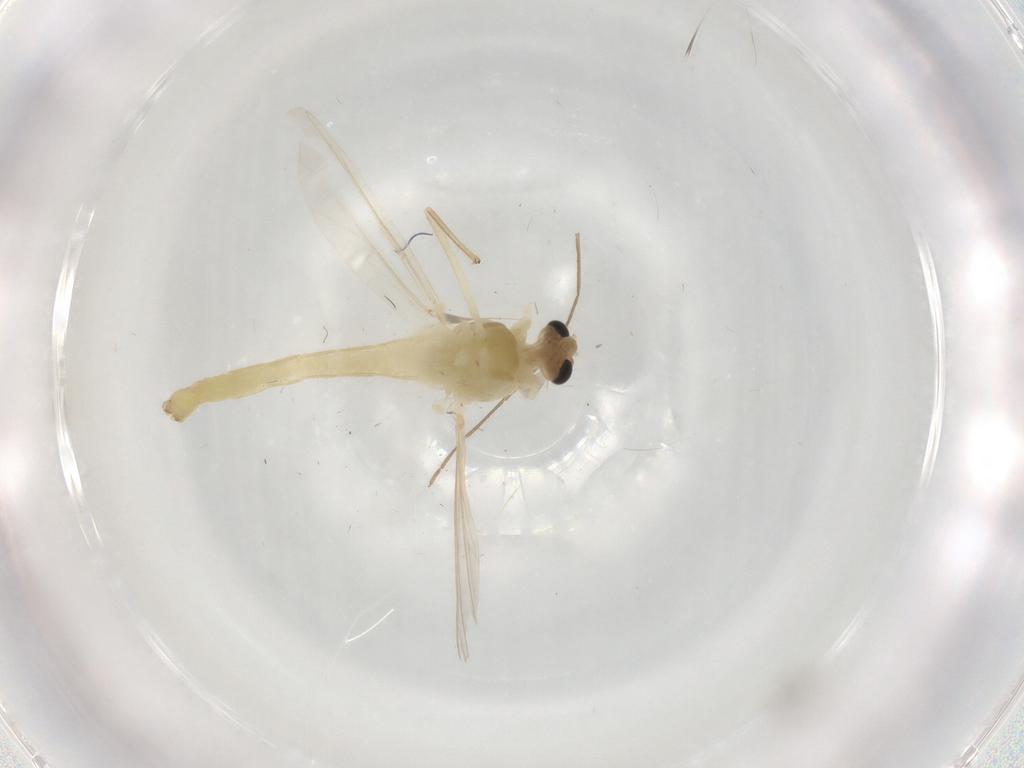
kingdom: Animalia
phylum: Arthropoda
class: Insecta
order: Diptera
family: Chironomidae
